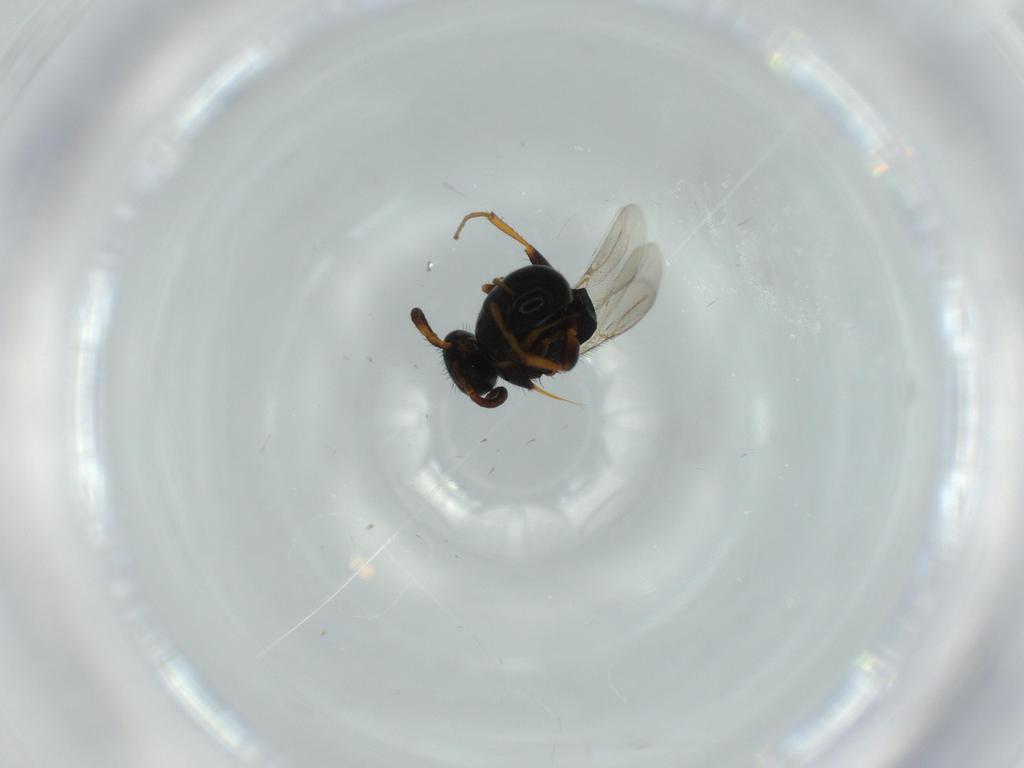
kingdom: Animalia
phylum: Arthropoda
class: Insecta
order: Hymenoptera
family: Bethylidae
